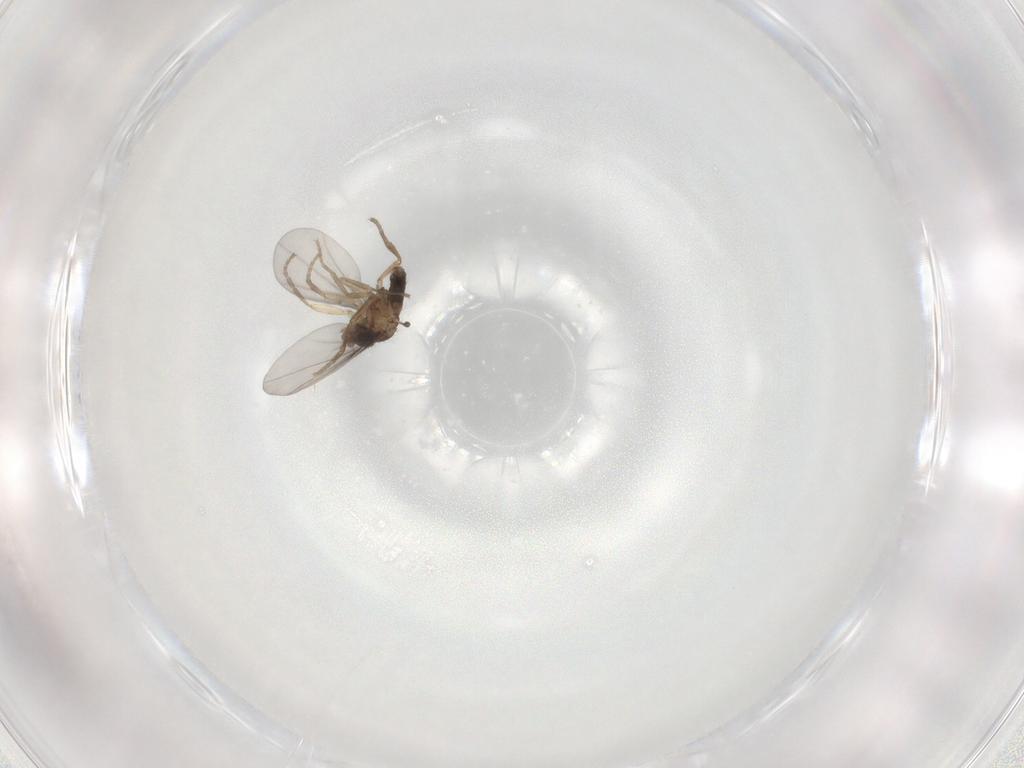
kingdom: Animalia
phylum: Arthropoda
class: Insecta
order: Diptera
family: Phoridae
